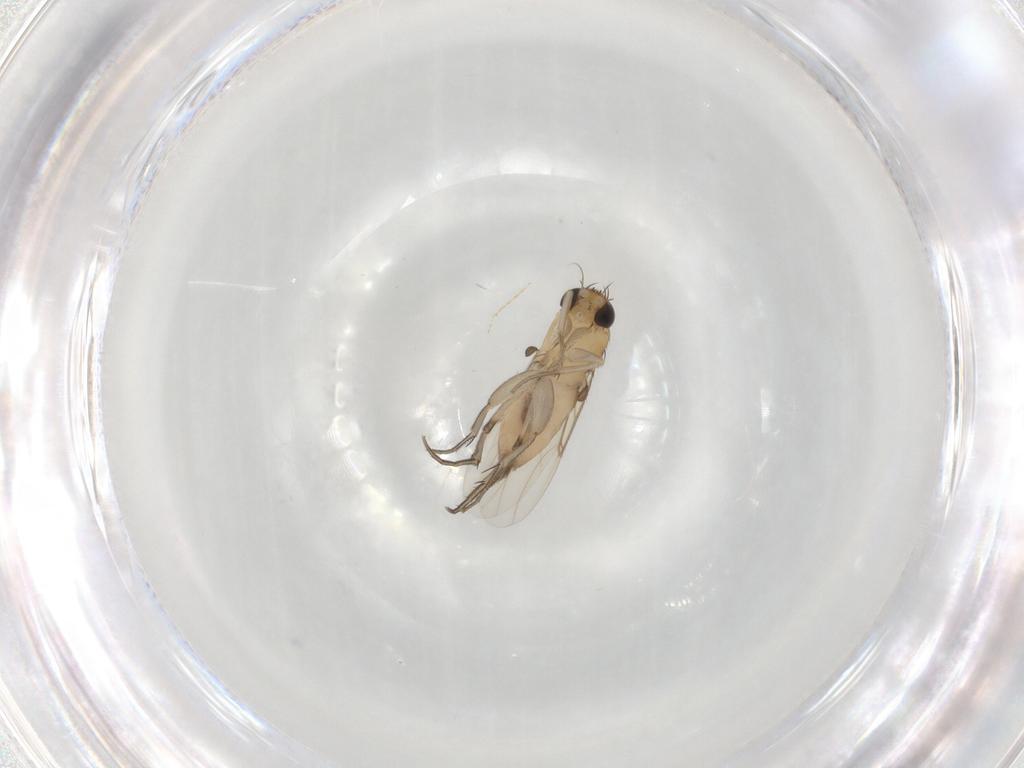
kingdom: Animalia
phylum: Arthropoda
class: Insecta
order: Diptera
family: Phoridae
